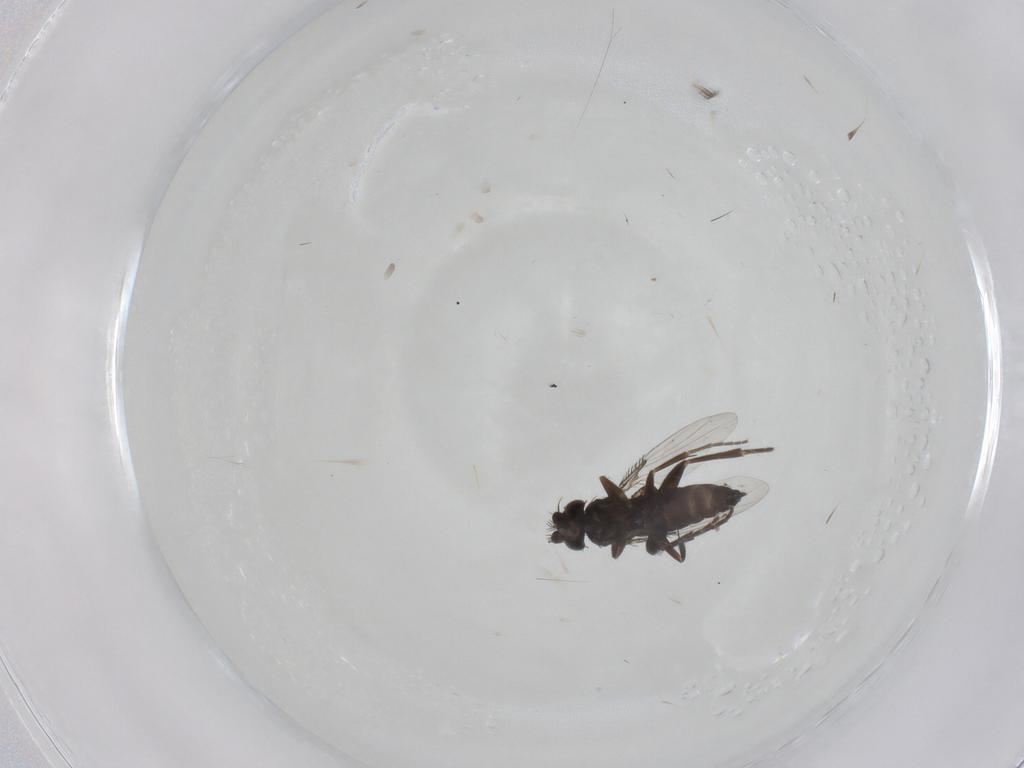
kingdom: Animalia
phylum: Arthropoda
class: Insecta
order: Diptera
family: Phoridae
